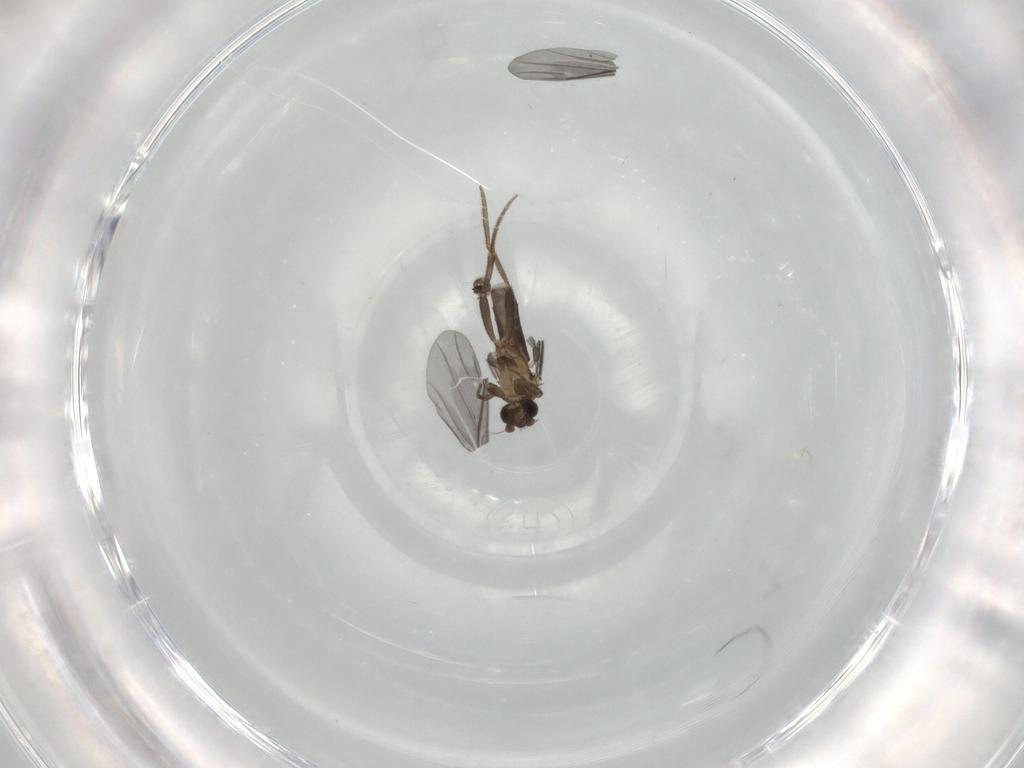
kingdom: Animalia
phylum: Arthropoda
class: Insecta
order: Diptera
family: Phoridae
